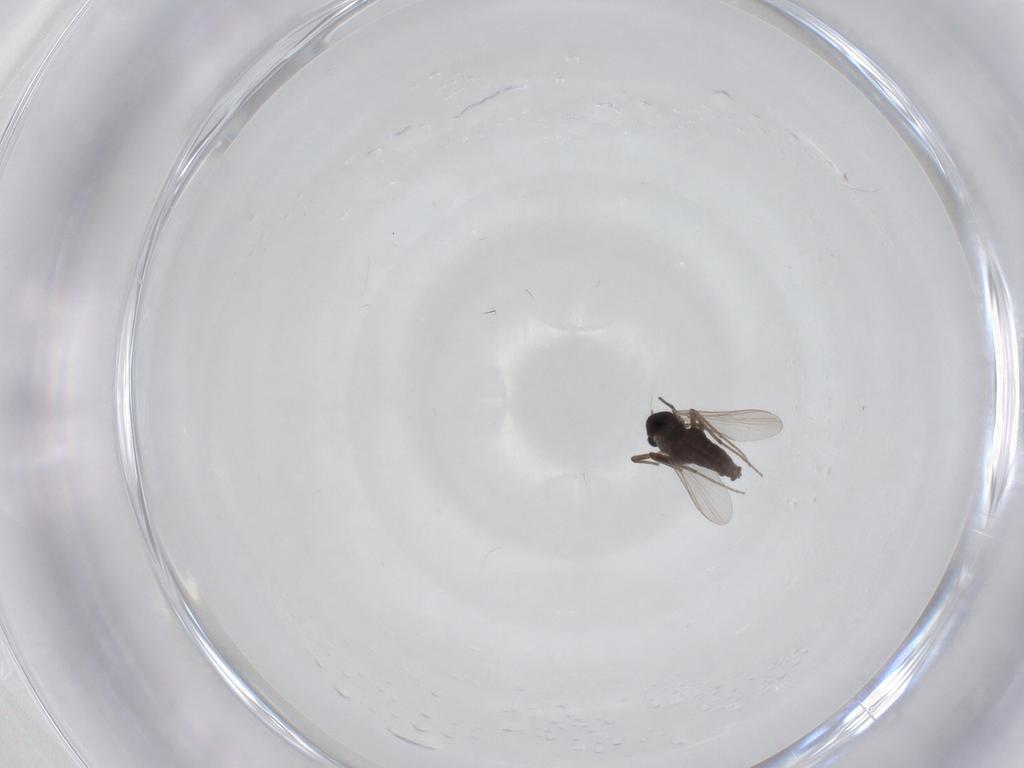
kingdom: Animalia
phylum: Arthropoda
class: Insecta
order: Diptera
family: Chironomidae
